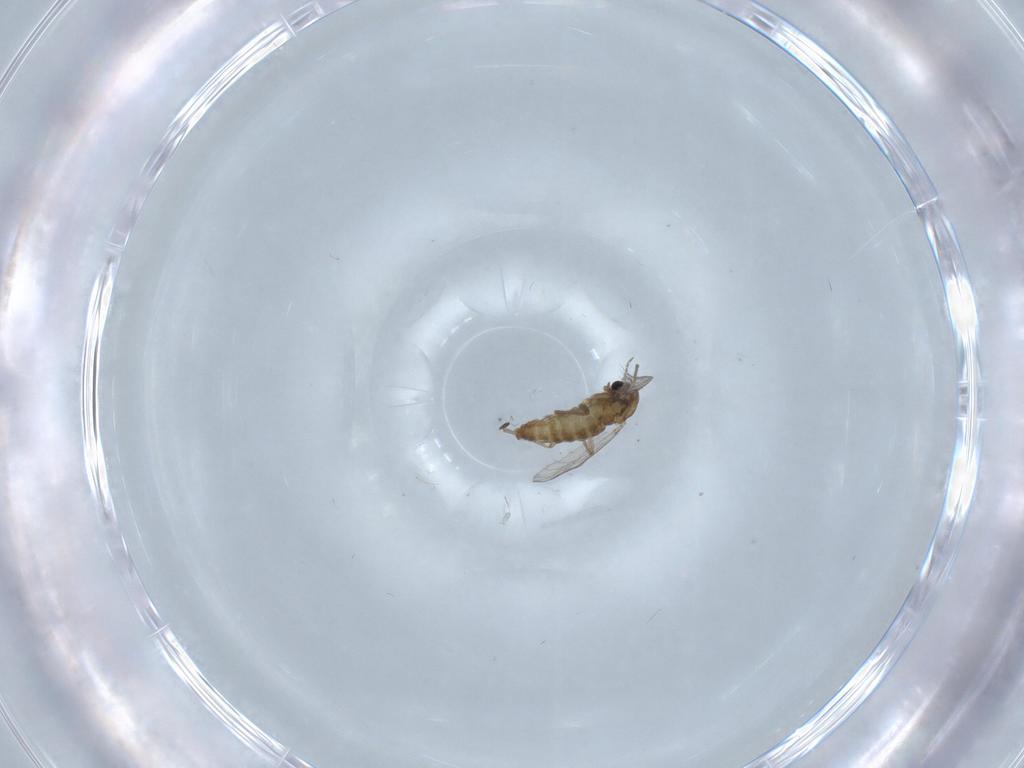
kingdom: Animalia
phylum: Arthropoda
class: Insecta
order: Diptera
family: Chironomidae
